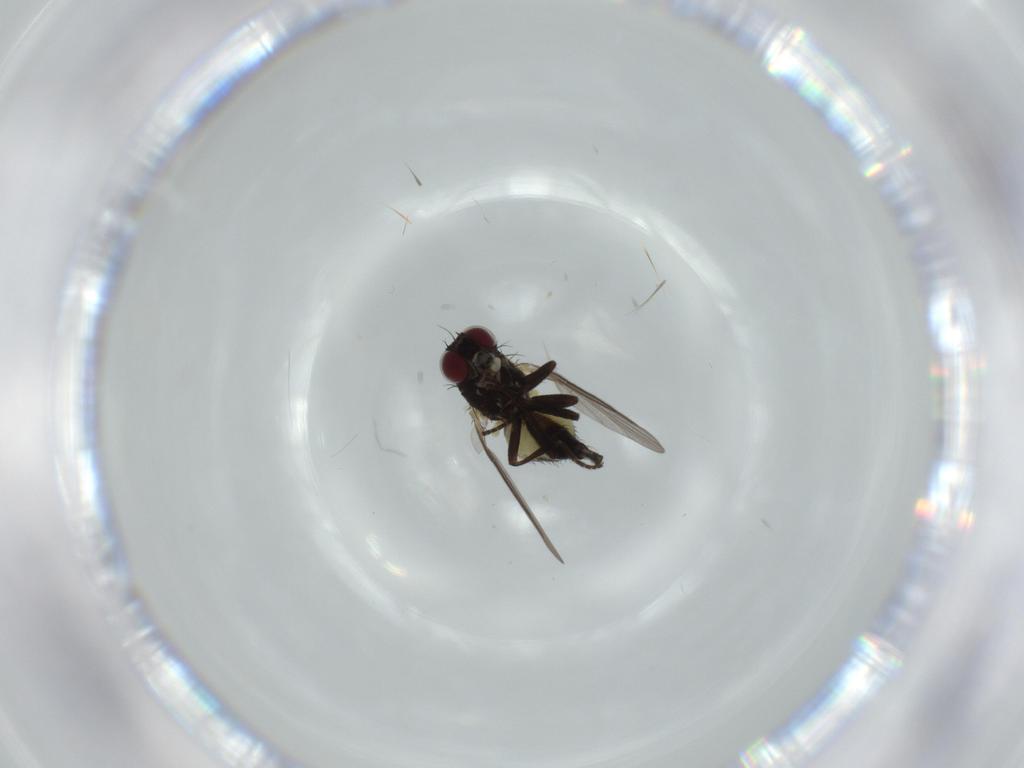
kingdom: Animalia
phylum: Arthropoda
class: Insecta
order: Diptera
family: Agromyzidae
